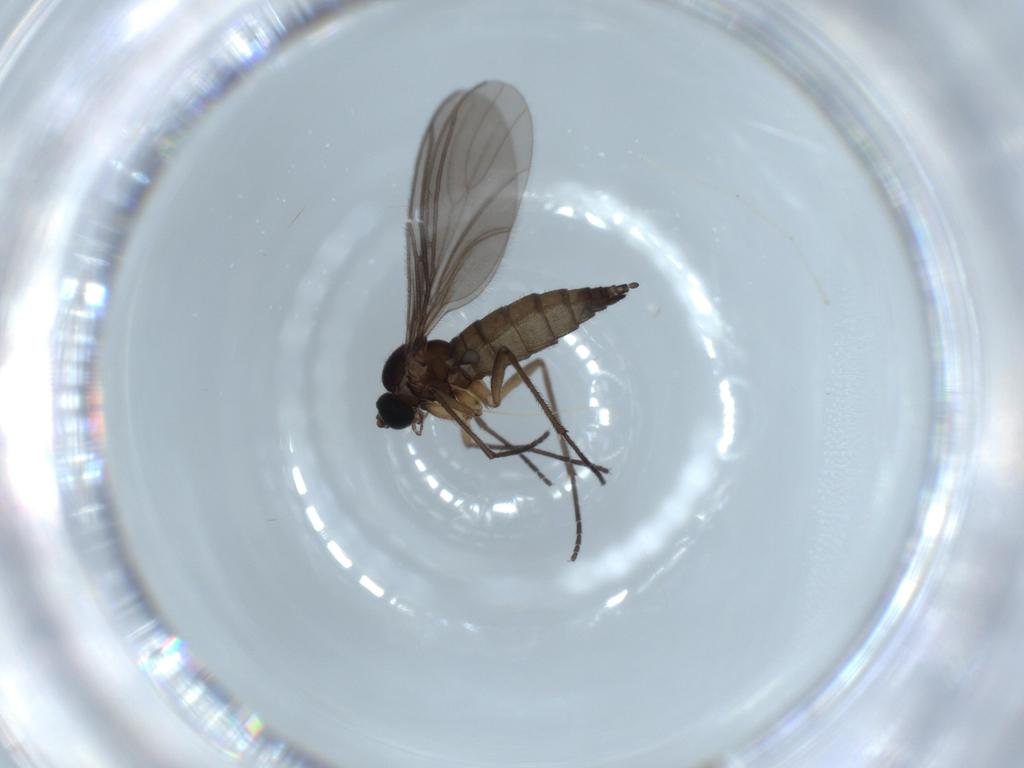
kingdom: Animalia
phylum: Arthropoda
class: Insecta
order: Diptera
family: Sciaridae
